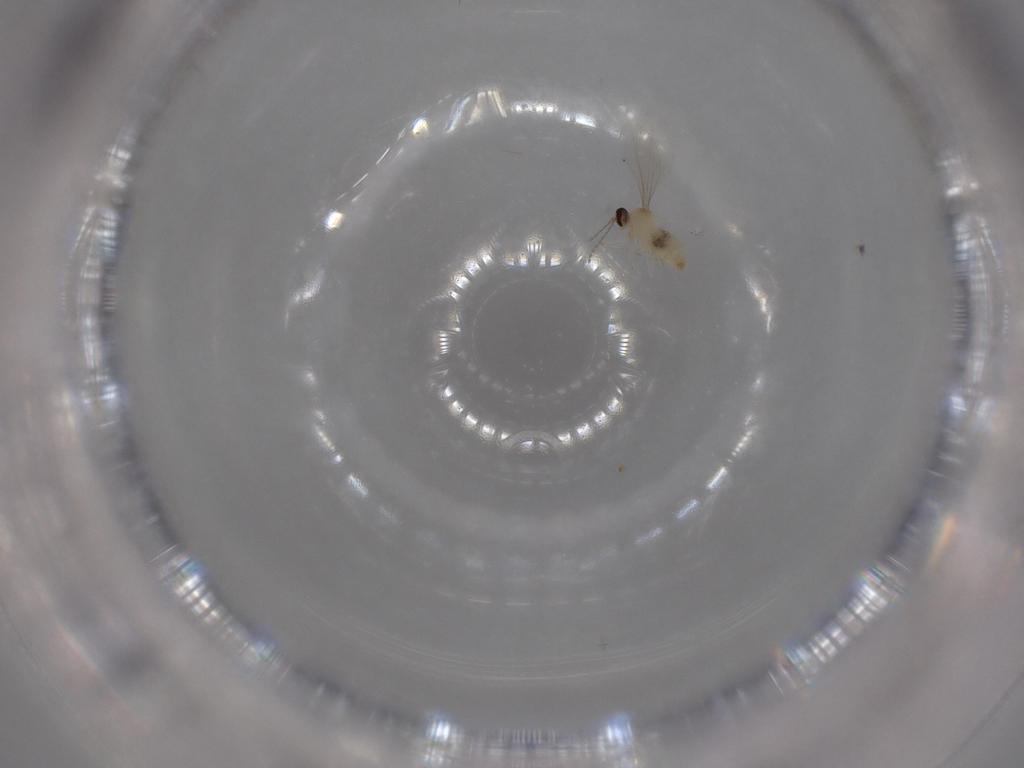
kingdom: Animalia
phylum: Arthropoda
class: Insecta
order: Diptera
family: Cecidomyiidae
